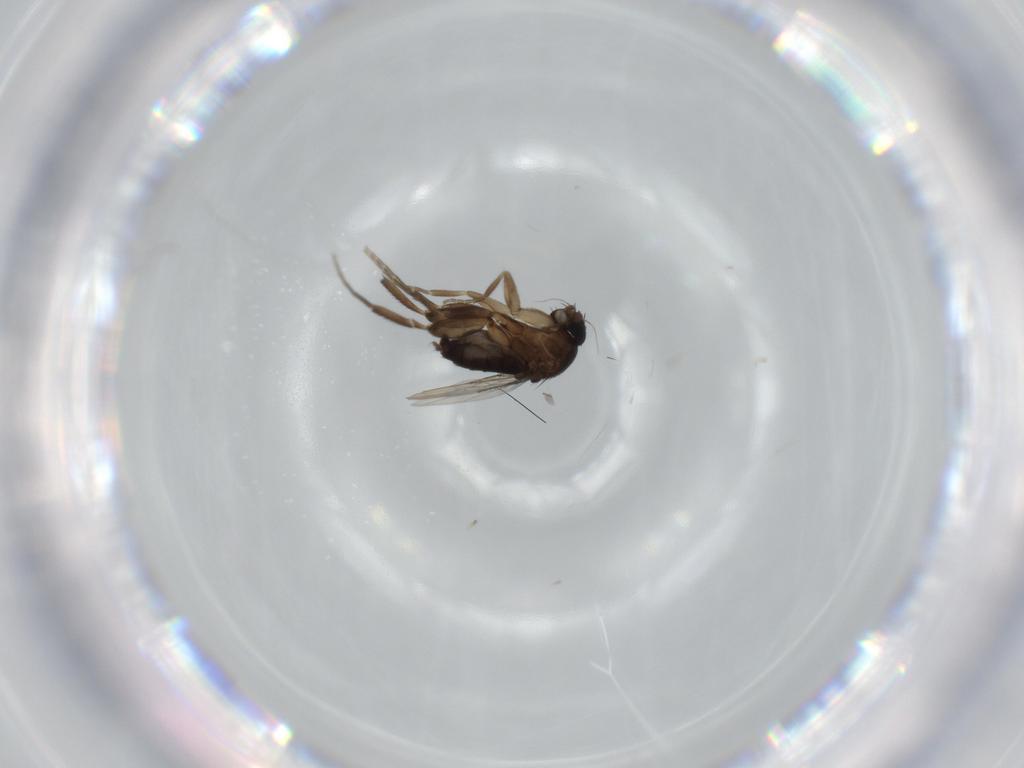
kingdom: Animalia
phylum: Arthropoda
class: Insecta
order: Diptera
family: Phoridae
